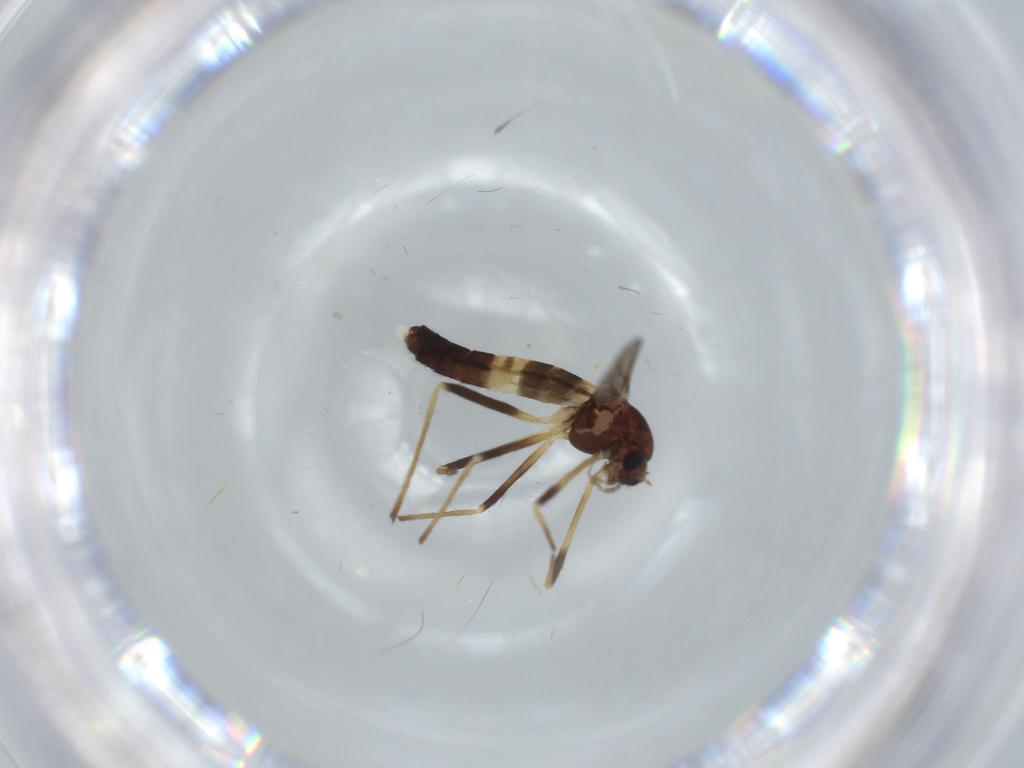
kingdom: Animalia
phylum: Arthropoda
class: Insecta
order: Diptera
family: Chironomidae
